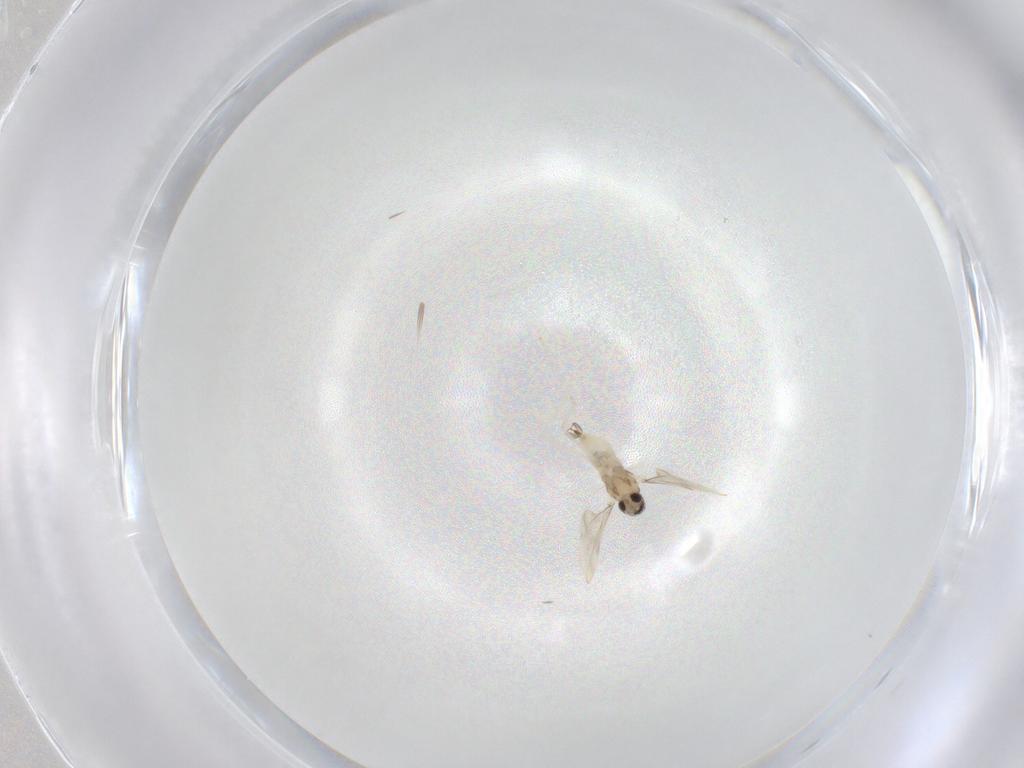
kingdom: Animalia
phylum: Arthropoda
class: Insecta
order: Diptera
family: Cecidomyiidae
